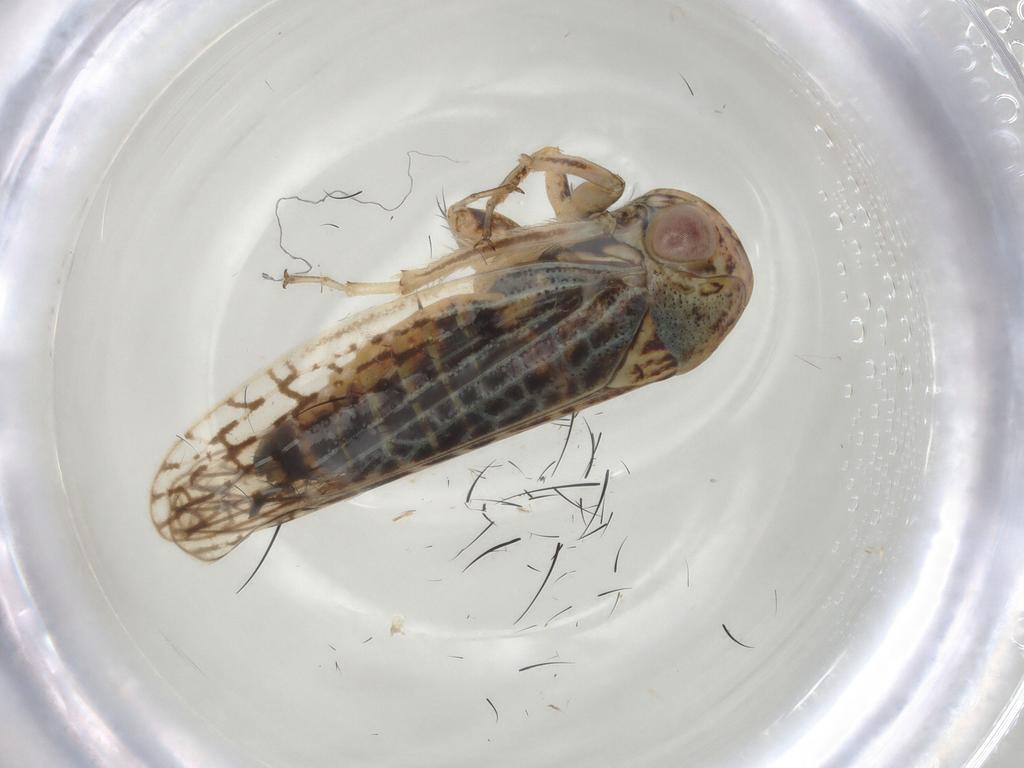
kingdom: Animalia
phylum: Arthropoda
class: Insecta
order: Hemiptera
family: Cicadellidae
